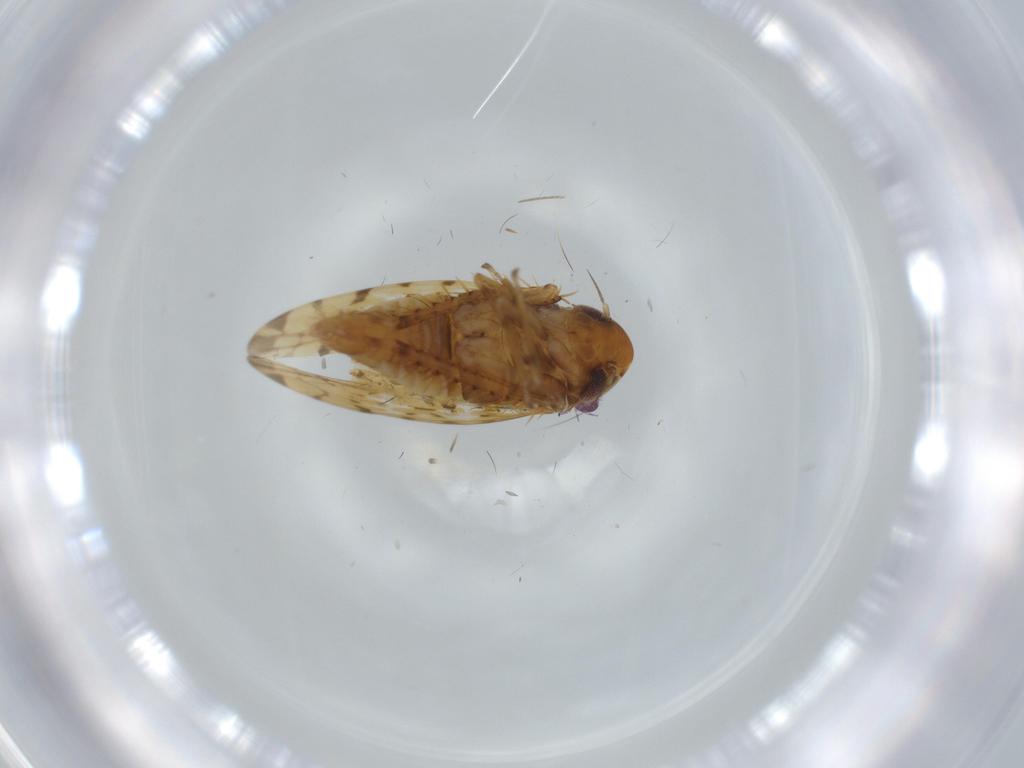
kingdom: Animalia
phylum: Arthropoda
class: Insecta
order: Hemiptera
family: Cicadellidae
